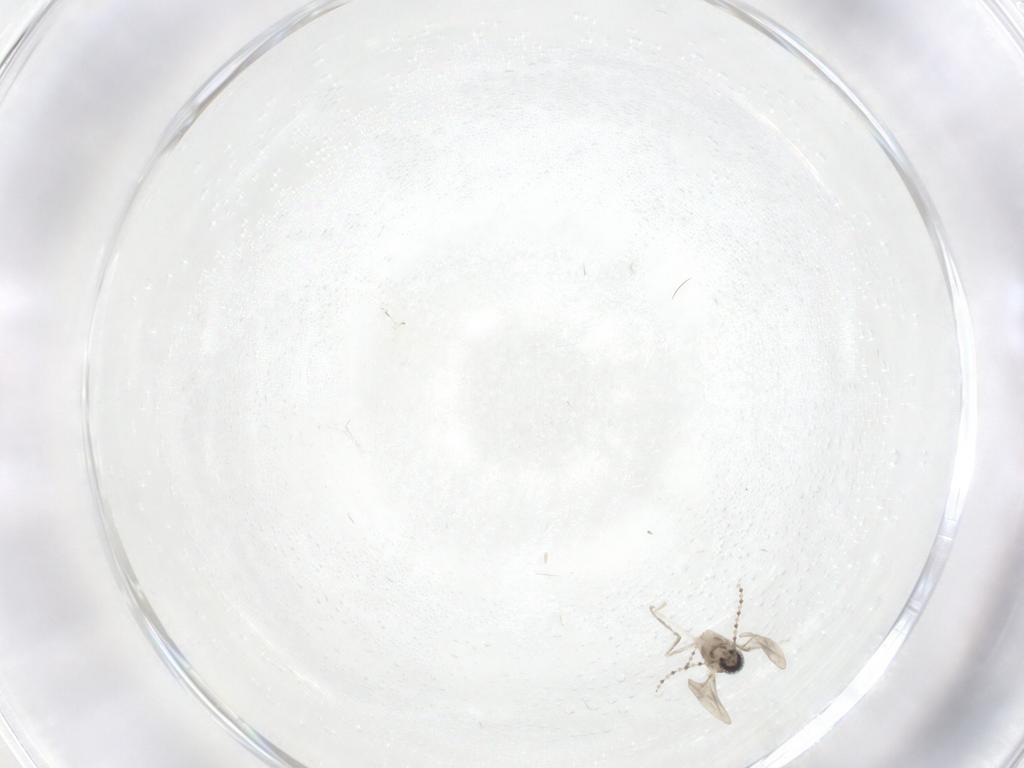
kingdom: Animalia
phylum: Arthropoda
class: Insecta
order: Diptera
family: Cecidomyiidae
